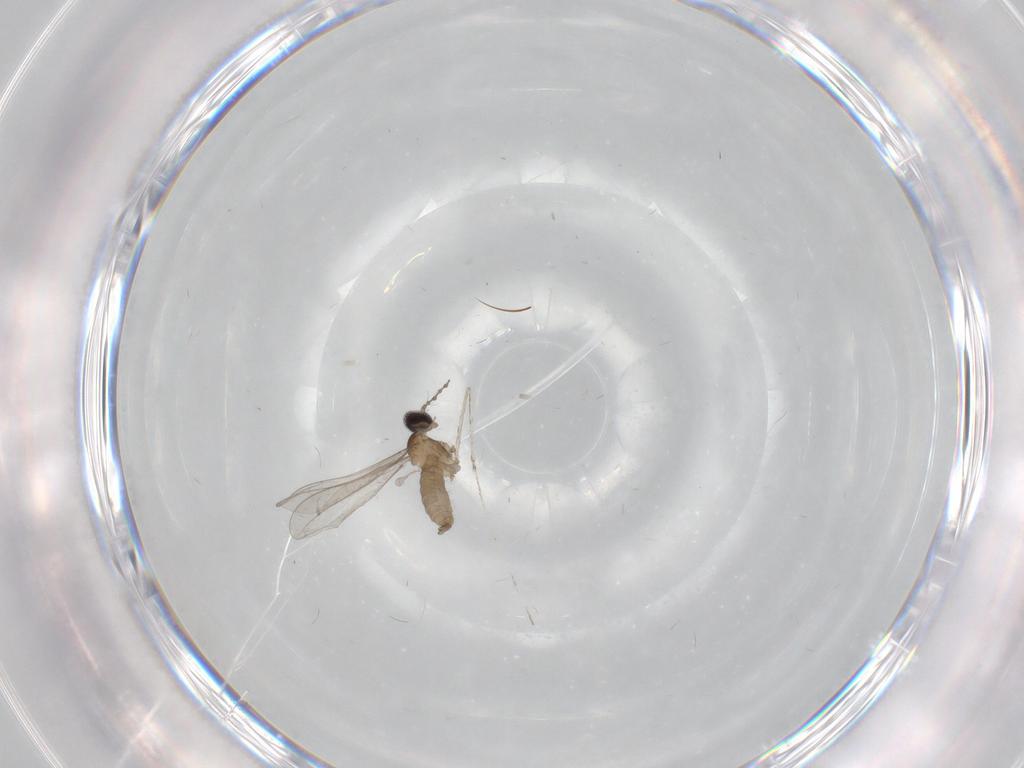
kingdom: Animalia
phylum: Arthropoda
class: Insecta
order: Diptera
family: Cecidomyiidae
